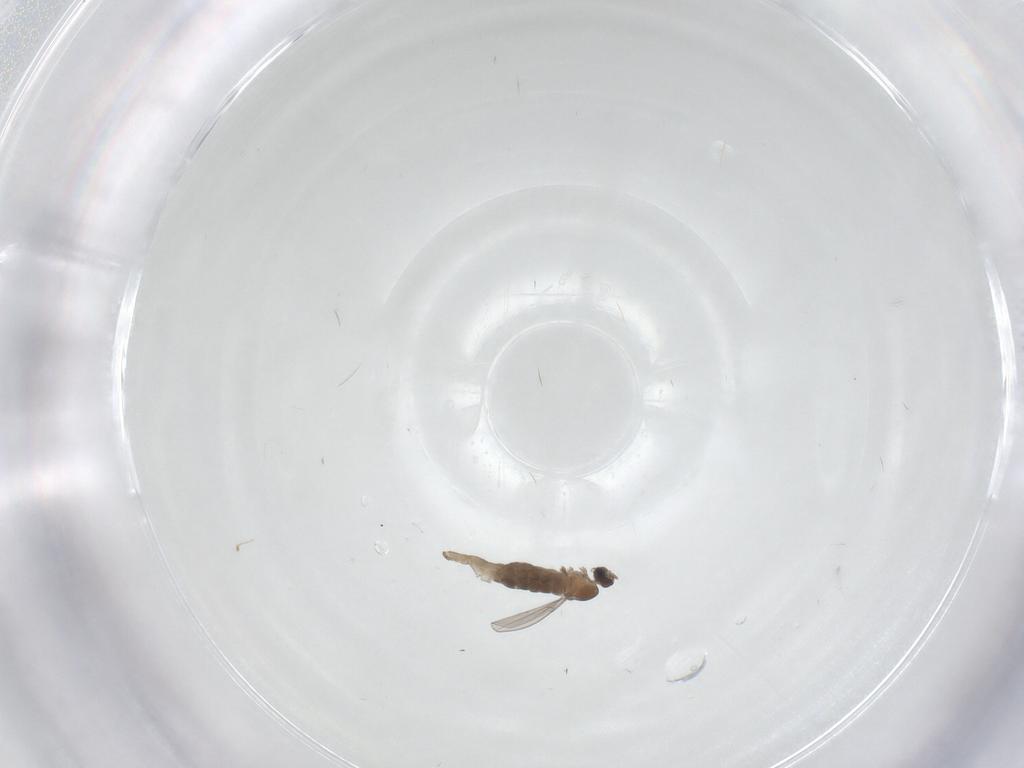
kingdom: Animalia
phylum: Arthropoda
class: Insecta
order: Diptera
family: Chironomidae
